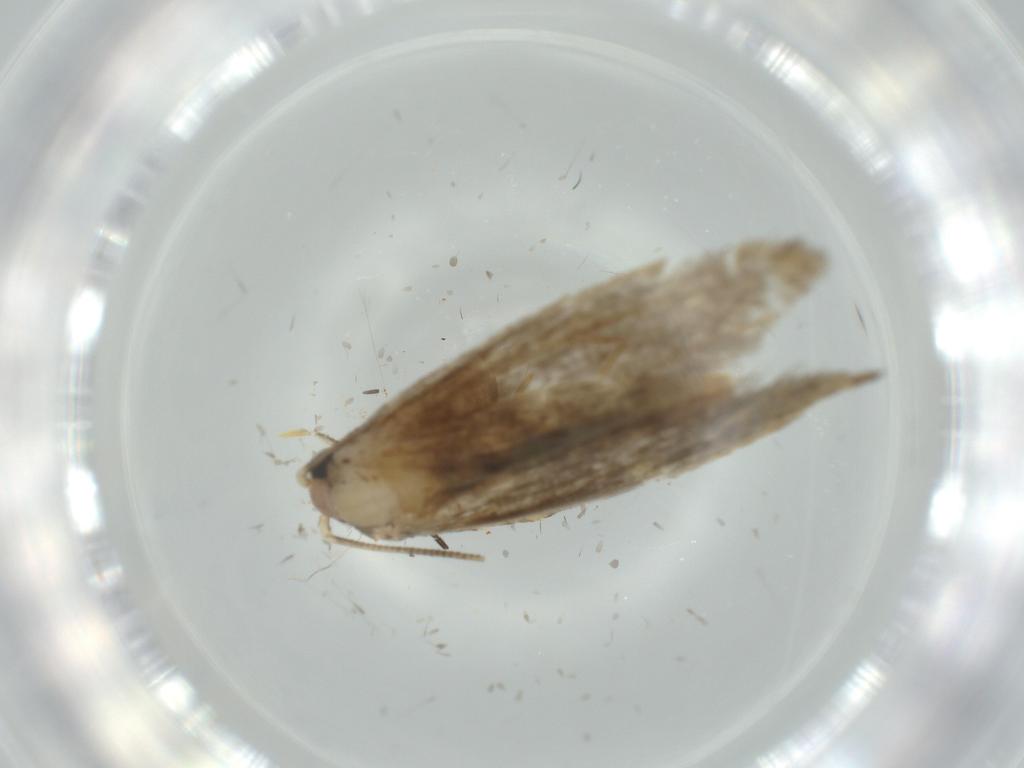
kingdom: Animalia
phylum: Arthropoda
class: Insecta
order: Lepidoptera
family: Tineidae
